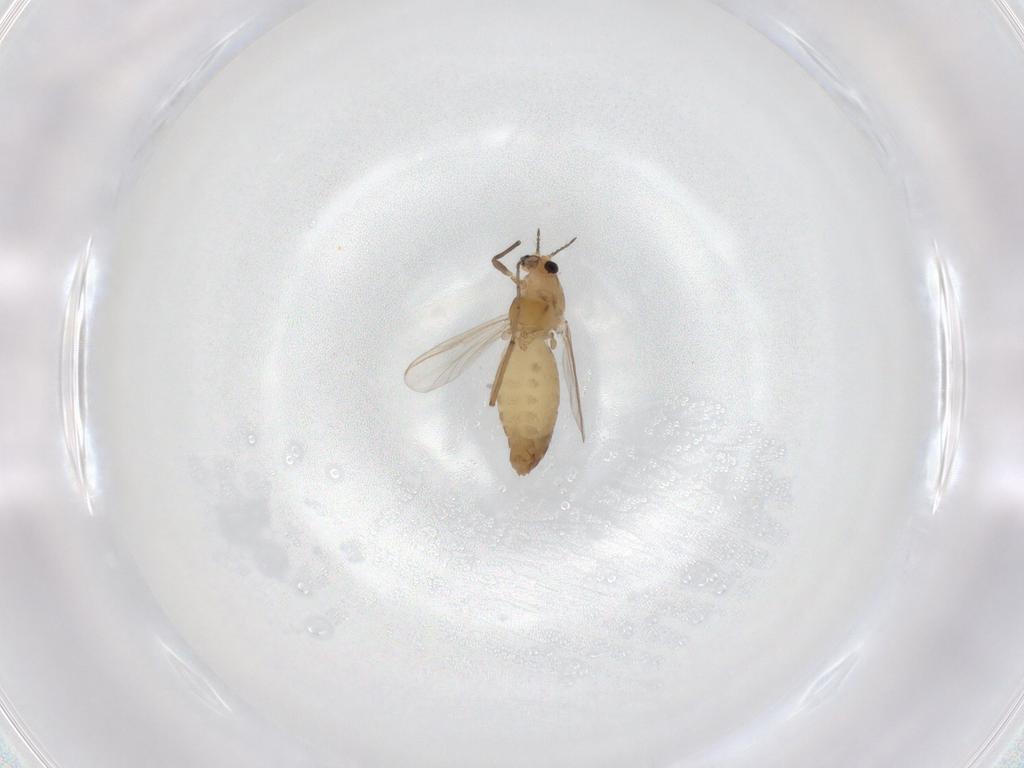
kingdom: Animalia
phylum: Arthropoda
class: Insecta
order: Diptera
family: Chironomidae
